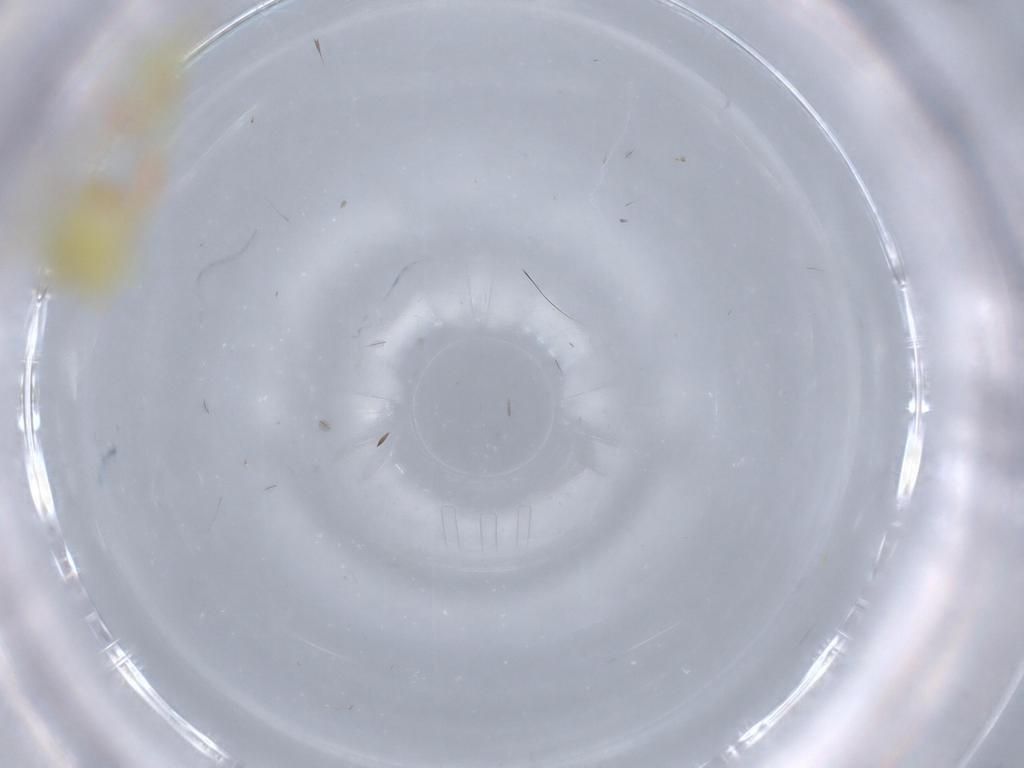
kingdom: Animalia
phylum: Arthropoda
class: Insecta
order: Hemiptera
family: Cicadellidae
